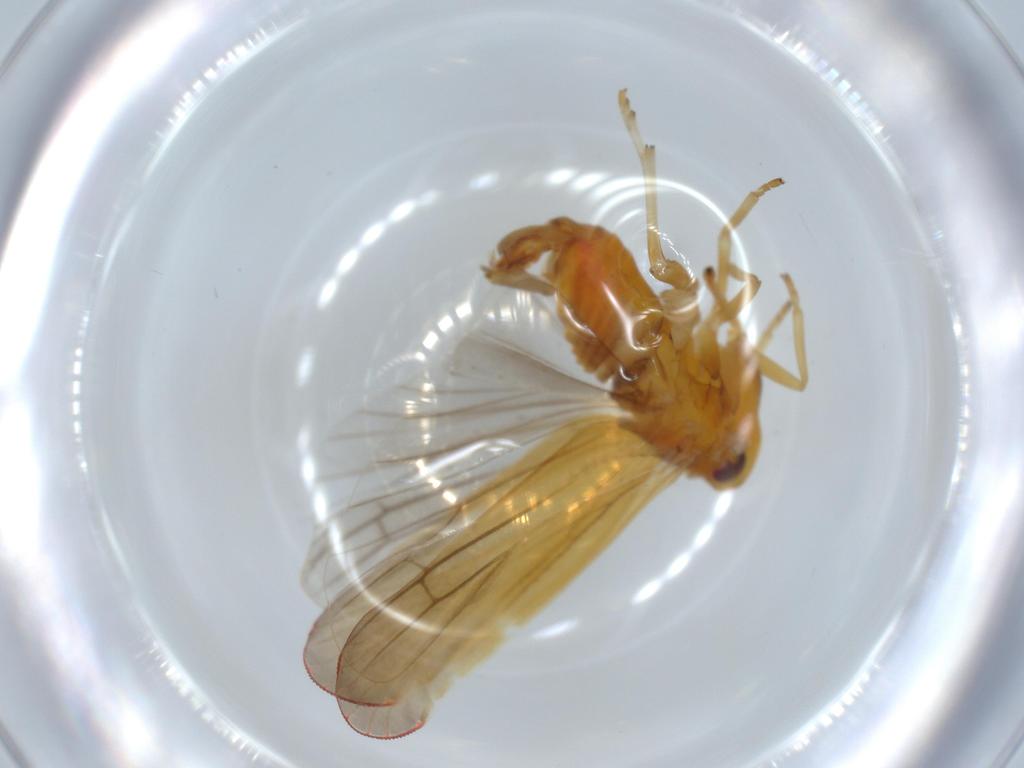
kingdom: Animalia
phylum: Arthropoda
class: Insecta
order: Hemiptera
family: Derbidae
